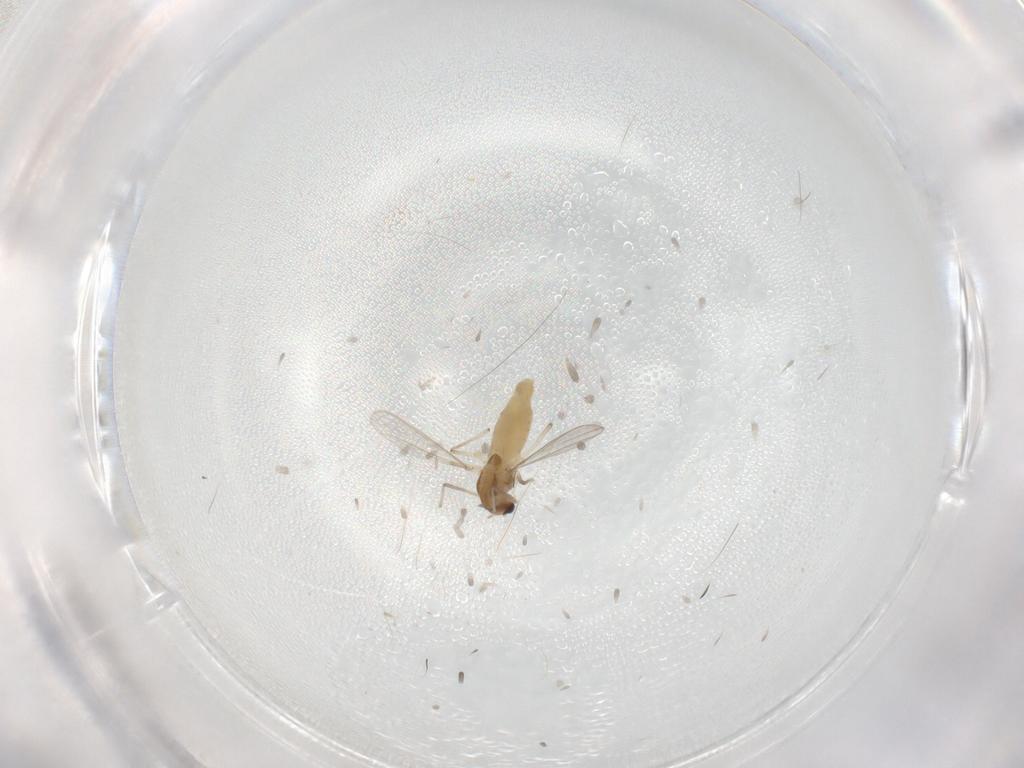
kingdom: Animalia
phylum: Arthropoda
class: Insecta
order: Diptera
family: Chironomidae
